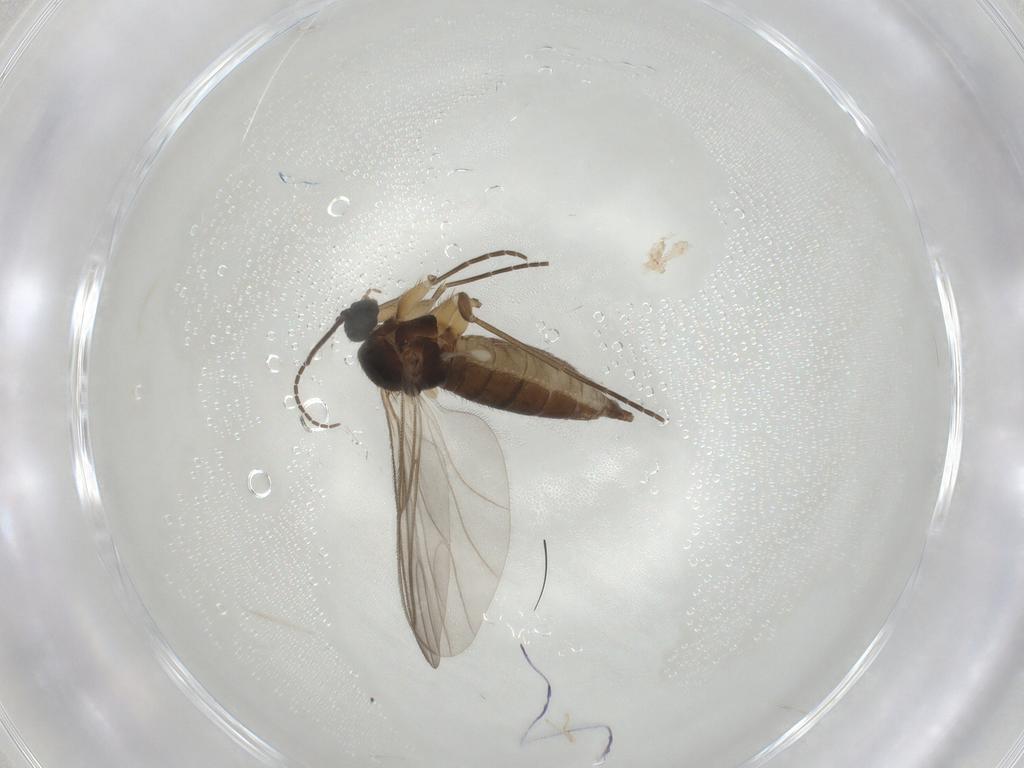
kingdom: Animalia
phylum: Arthropoda
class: Insecta
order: Diptera
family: Sciaridae
